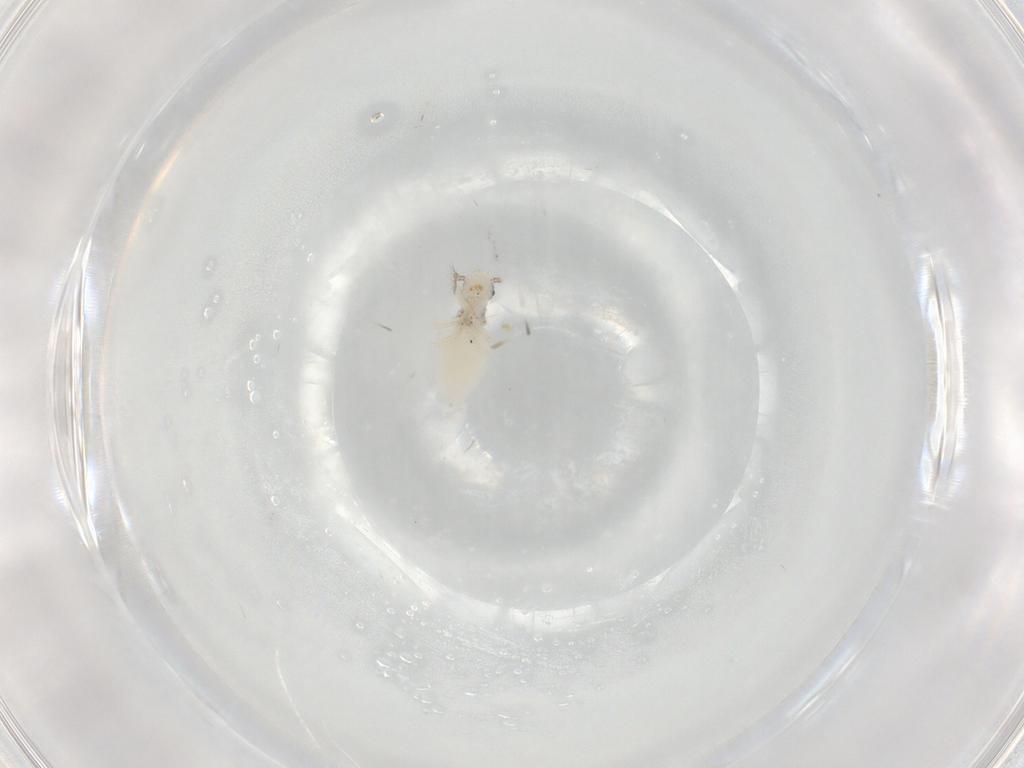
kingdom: Animalia
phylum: Arthropoda
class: Insecta
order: Psocodea
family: Pseudocaeciliidae
